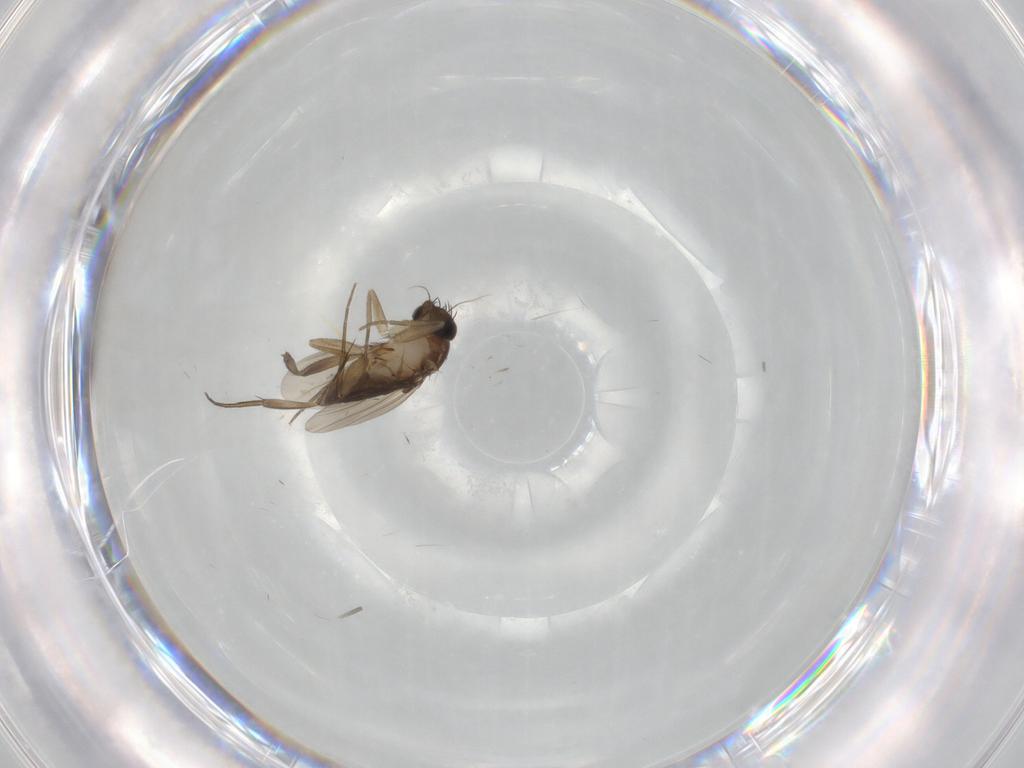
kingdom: Animalia
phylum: Arthropoda
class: Insecta
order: Diptera
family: Phoridae
